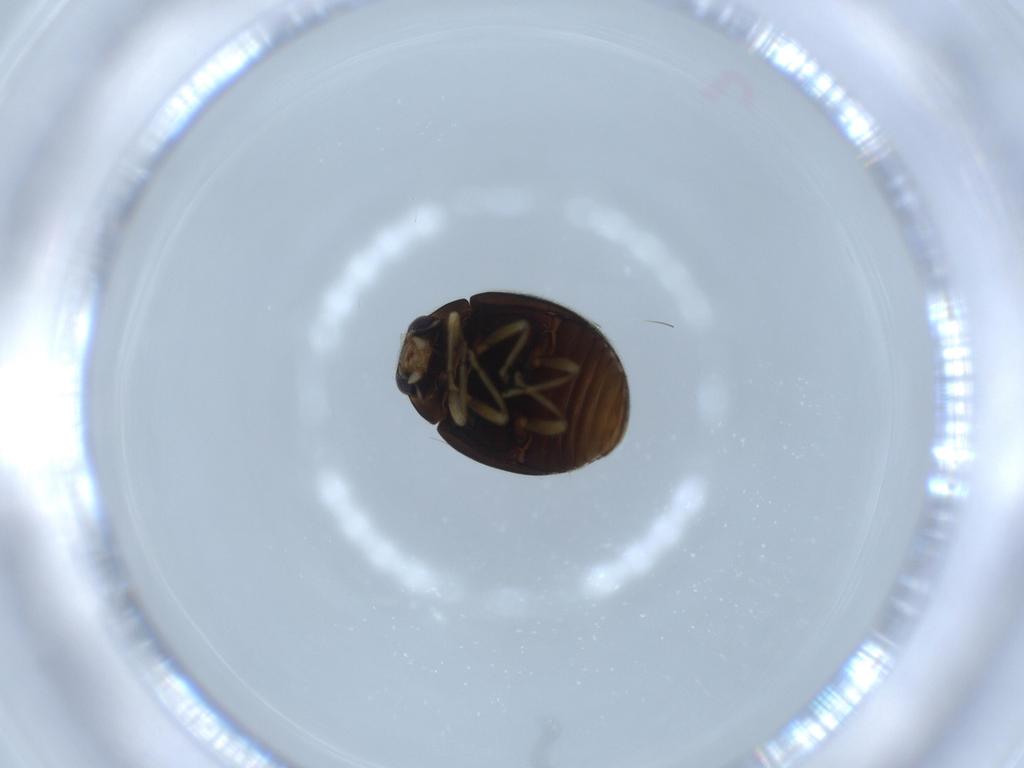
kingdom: Animalia
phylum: Arthropoda
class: Insecta
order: Coleoptera
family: Coccinellidae
